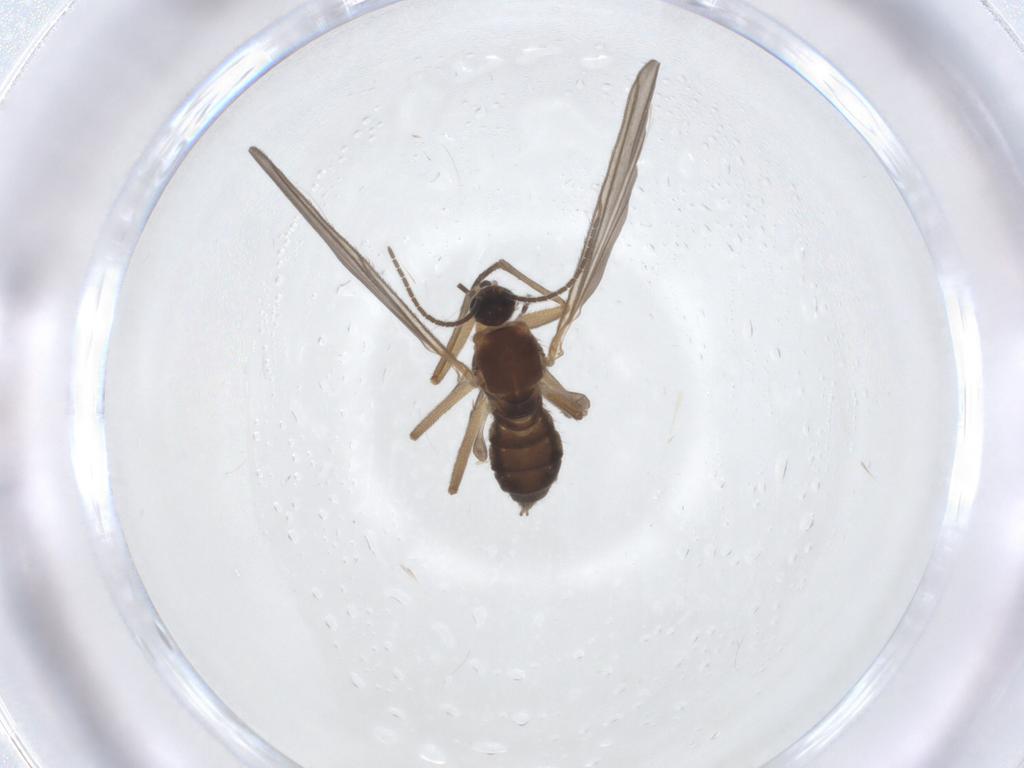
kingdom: Animalia
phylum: Arthropoda
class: Insecta
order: Diptera
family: Sciaridae
